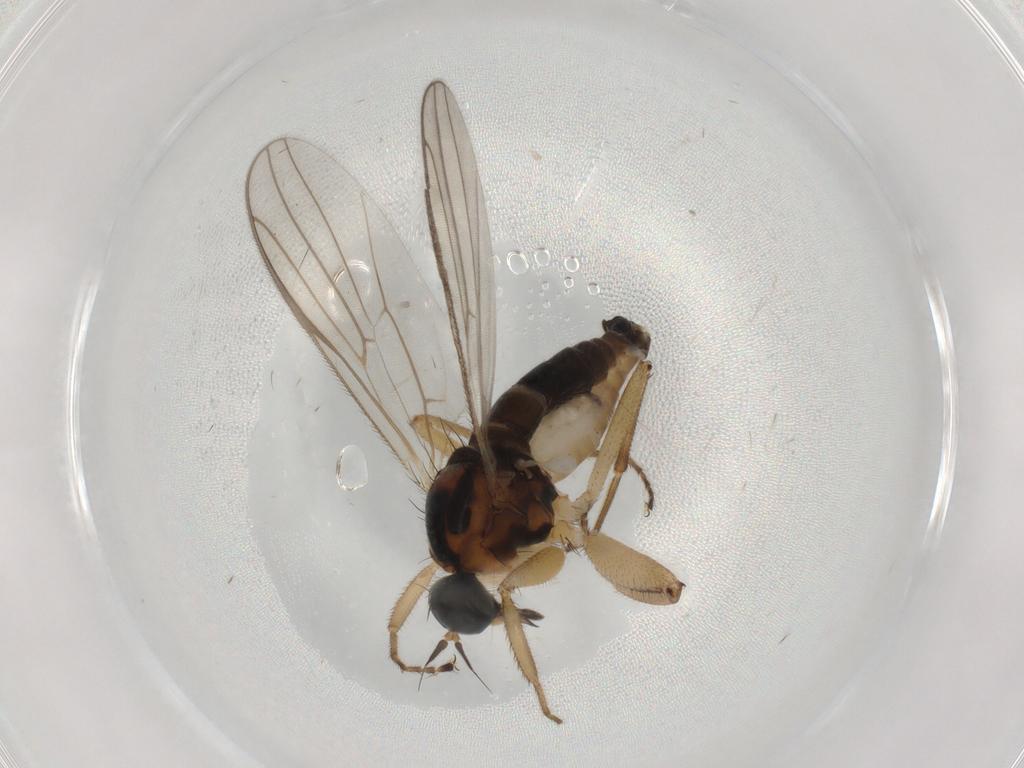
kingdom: Animalia
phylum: Arthropoda
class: Insecta
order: Diptera
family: Hybotidae
